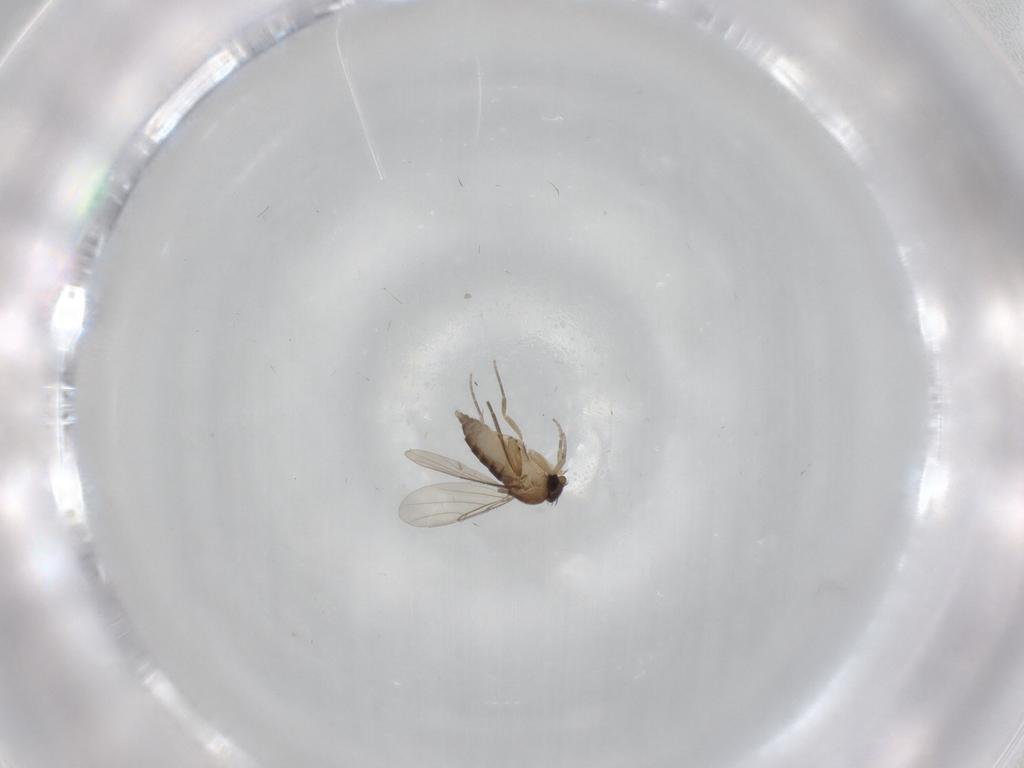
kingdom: Animalia
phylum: Arthropoda
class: Insecta
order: Diptera
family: Phoridae
